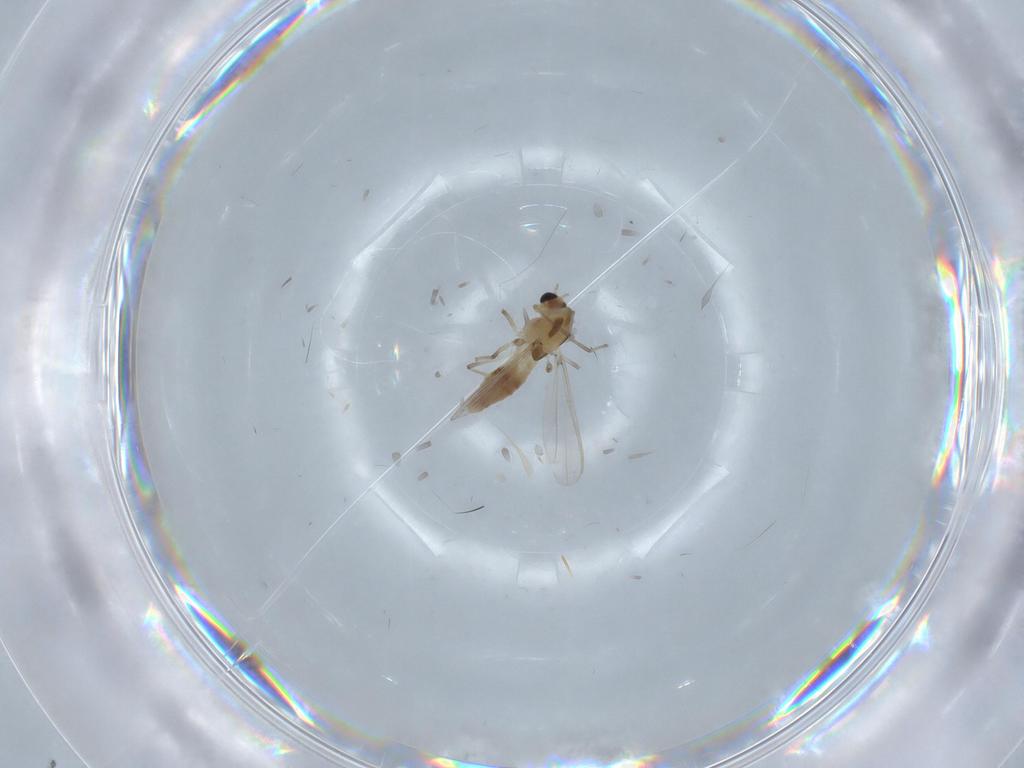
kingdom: Animalia
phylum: Arthropoda
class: Insecta
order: Diptera
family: Chironomidae
